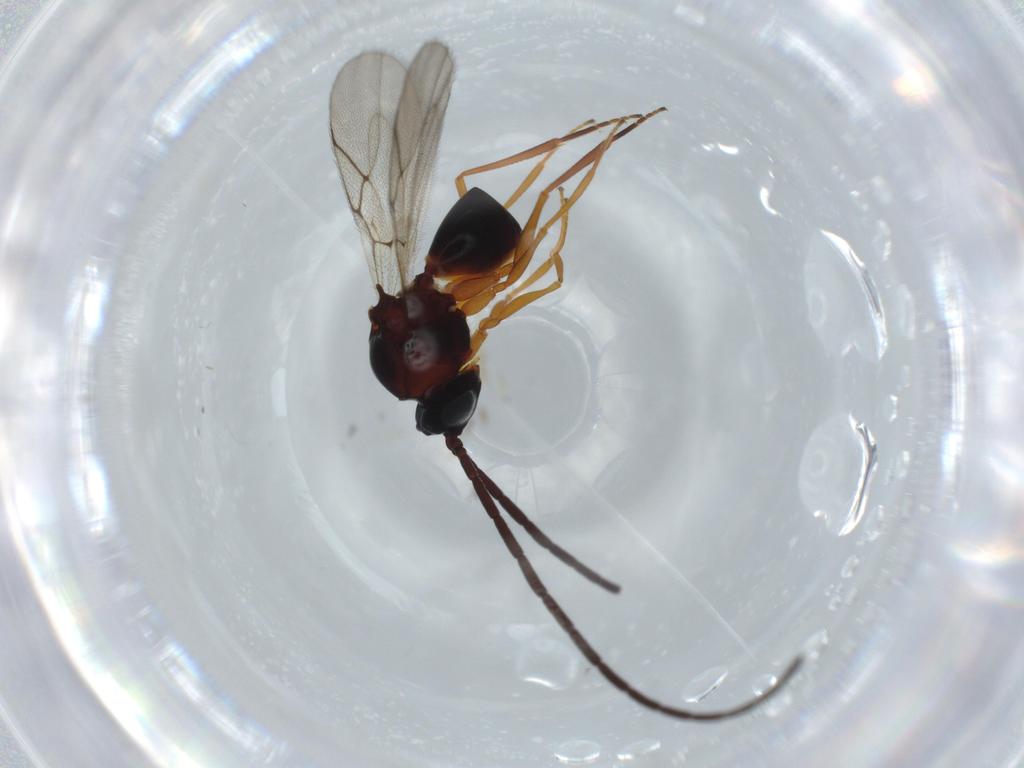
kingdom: Animalia
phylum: Arthropoda
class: Insecta
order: Hymenoptera
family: Figitidae
